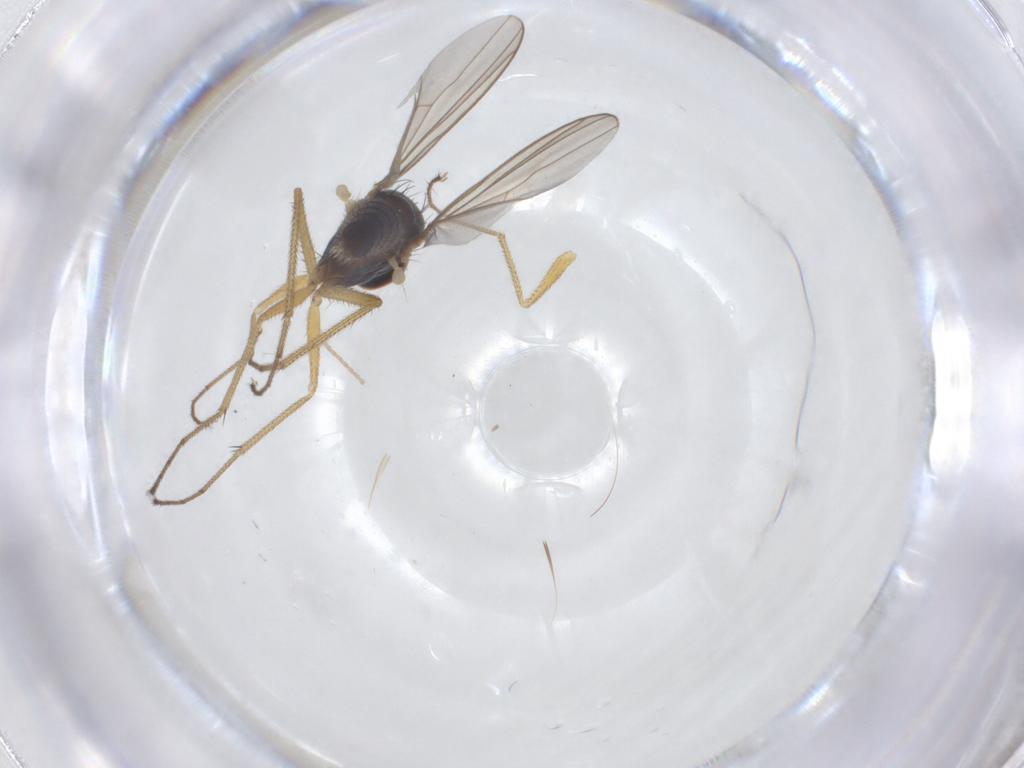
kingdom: Animalia
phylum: Arthropoda
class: Insecta
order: Diptera
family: Dolichopodidae
